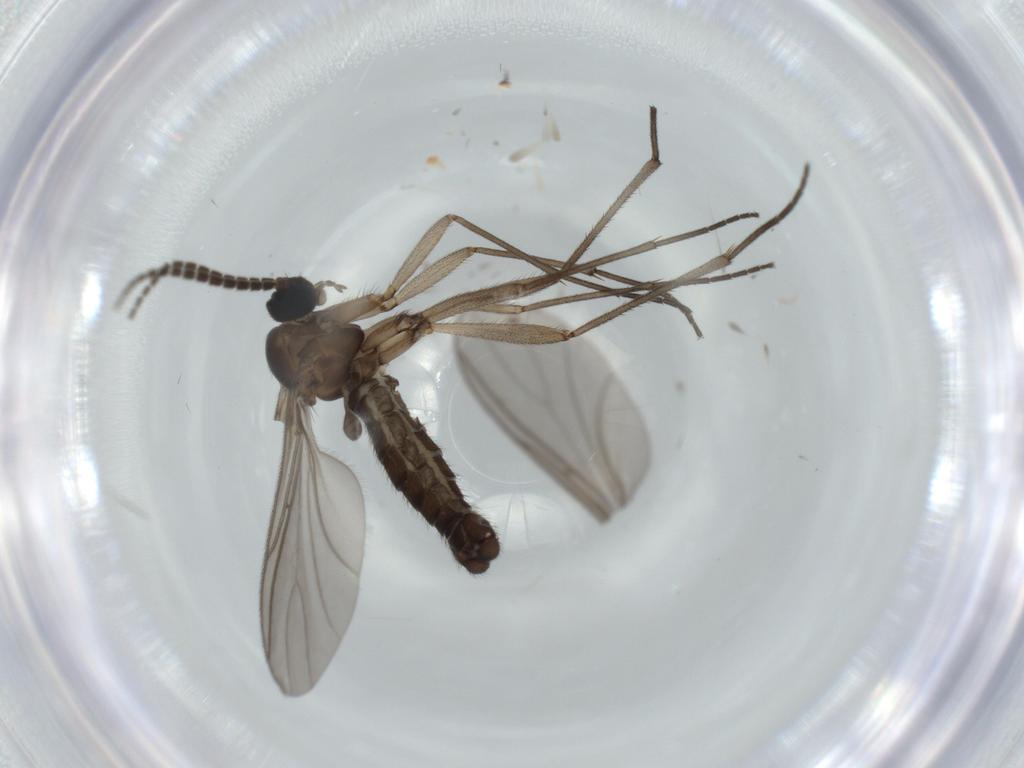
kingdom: Animalia
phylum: Arthropoda
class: Insecta
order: Diptera
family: Sciaridae
